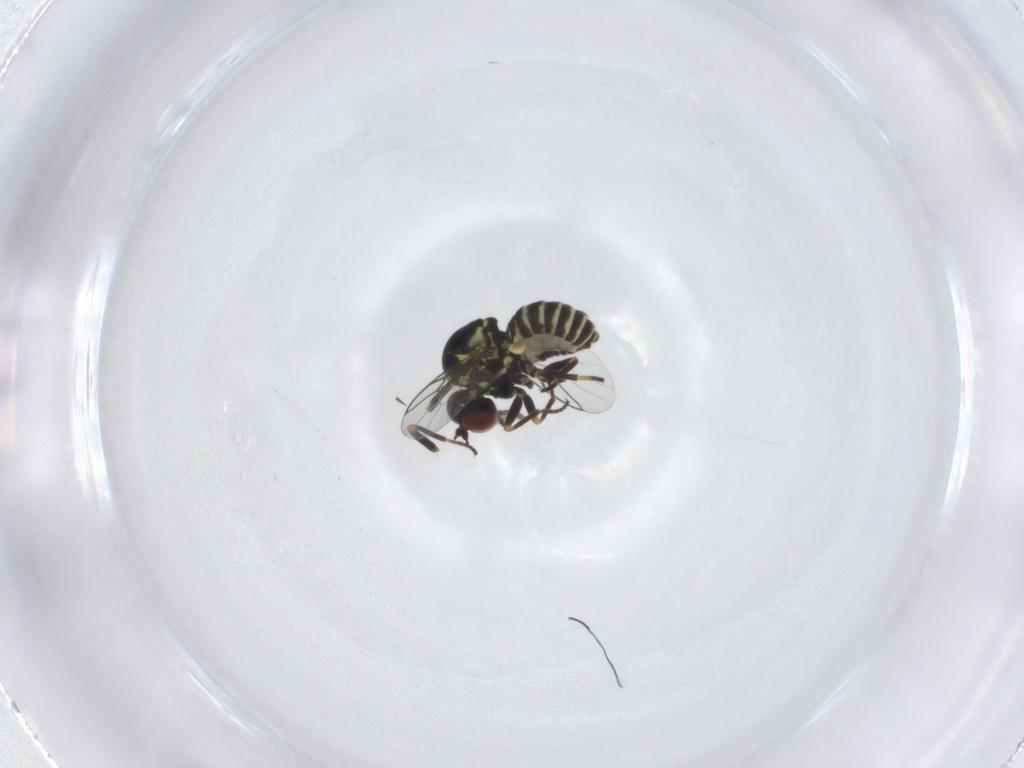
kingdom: Animalia
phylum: Arthropoda
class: Insecta
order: Diptera
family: Mythicomyiidae
